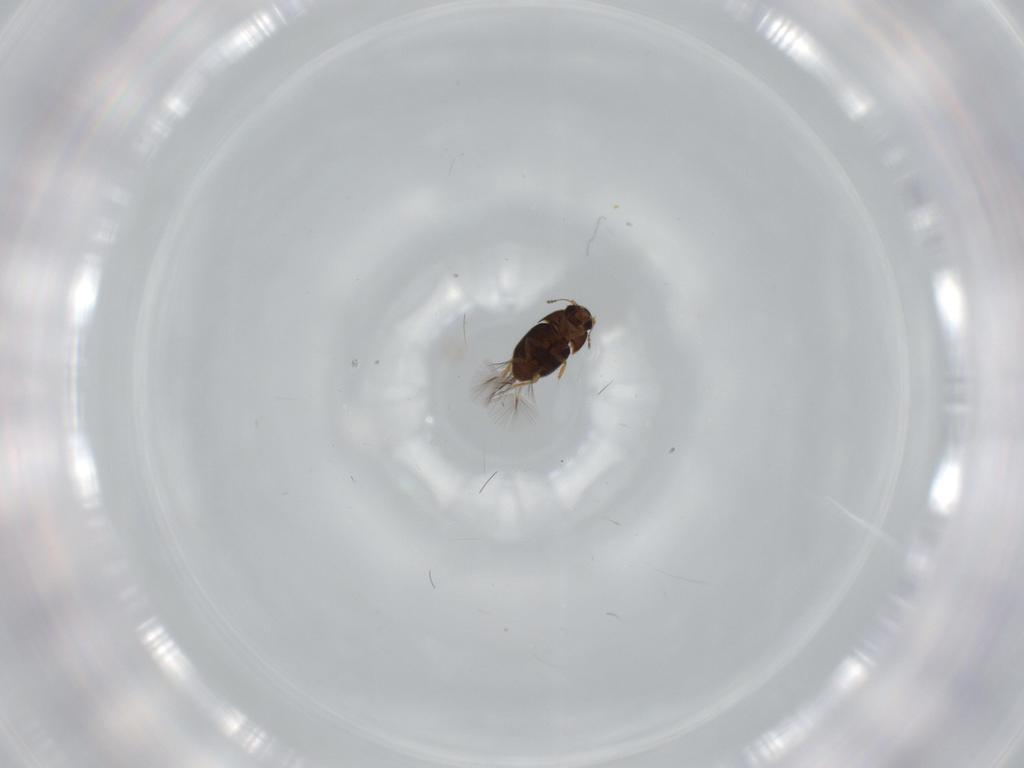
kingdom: Animalia
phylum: Arthropoda
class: Insecta
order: Coleoptera
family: Ptiliidae
